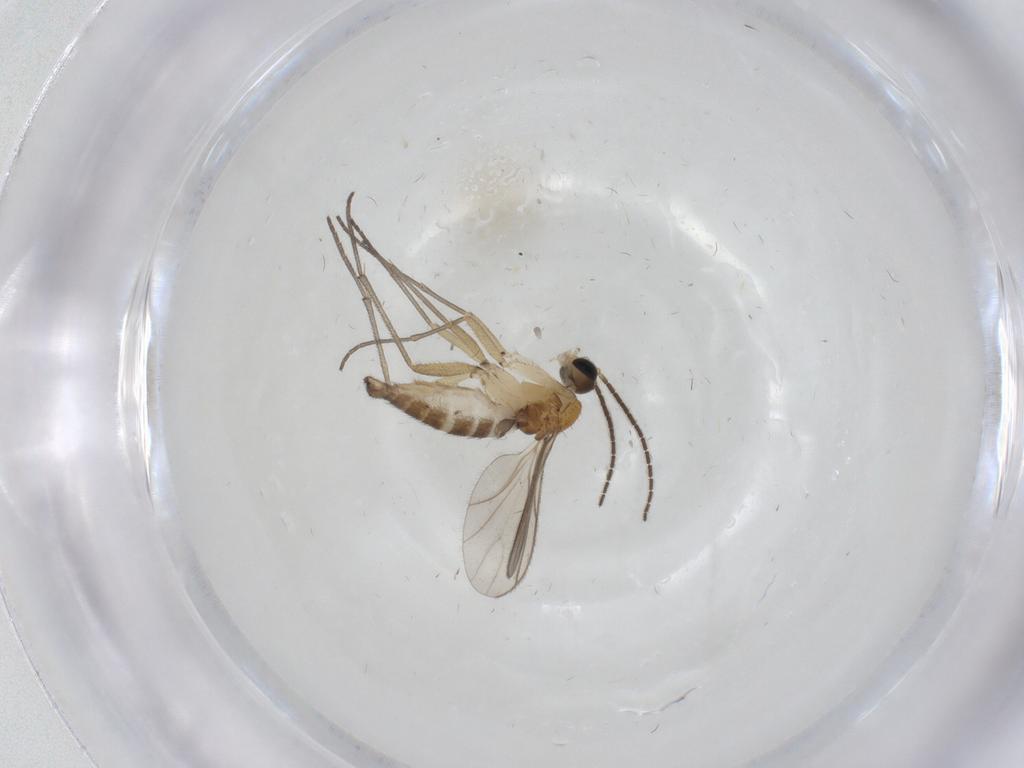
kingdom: Animalia
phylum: Arthropoda
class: Insecta
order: Diptera
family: Sciaridae
